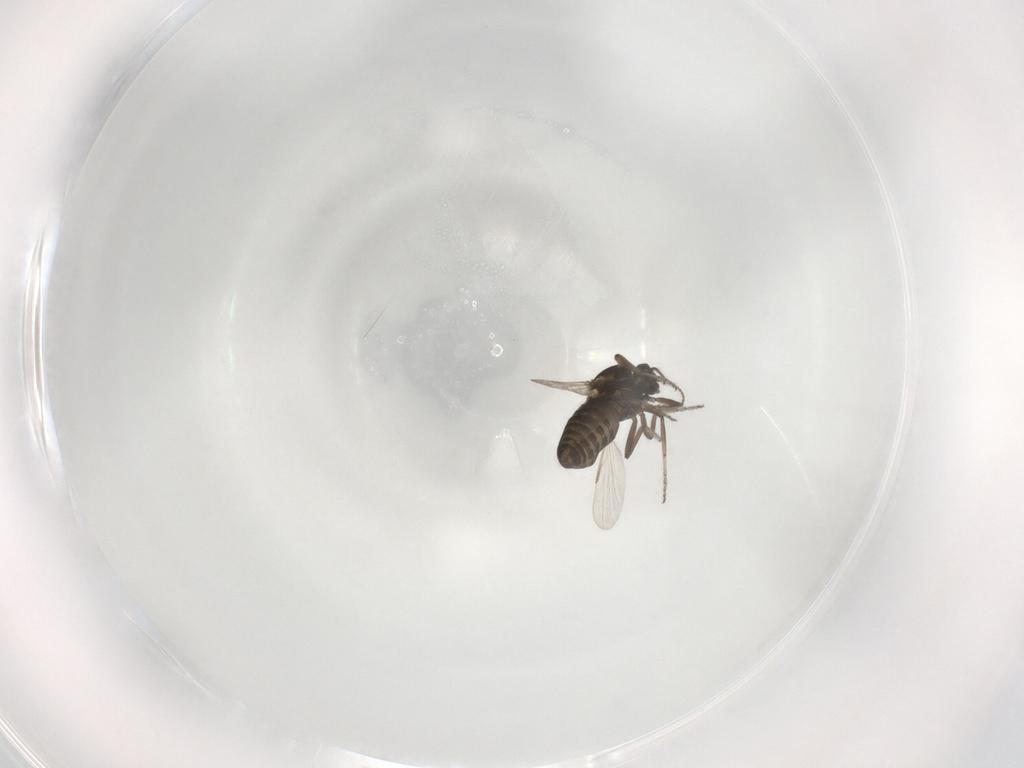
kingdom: Animalia
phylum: Arthropoda
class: Insecta
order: Diptera
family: Ceratopogonidae
